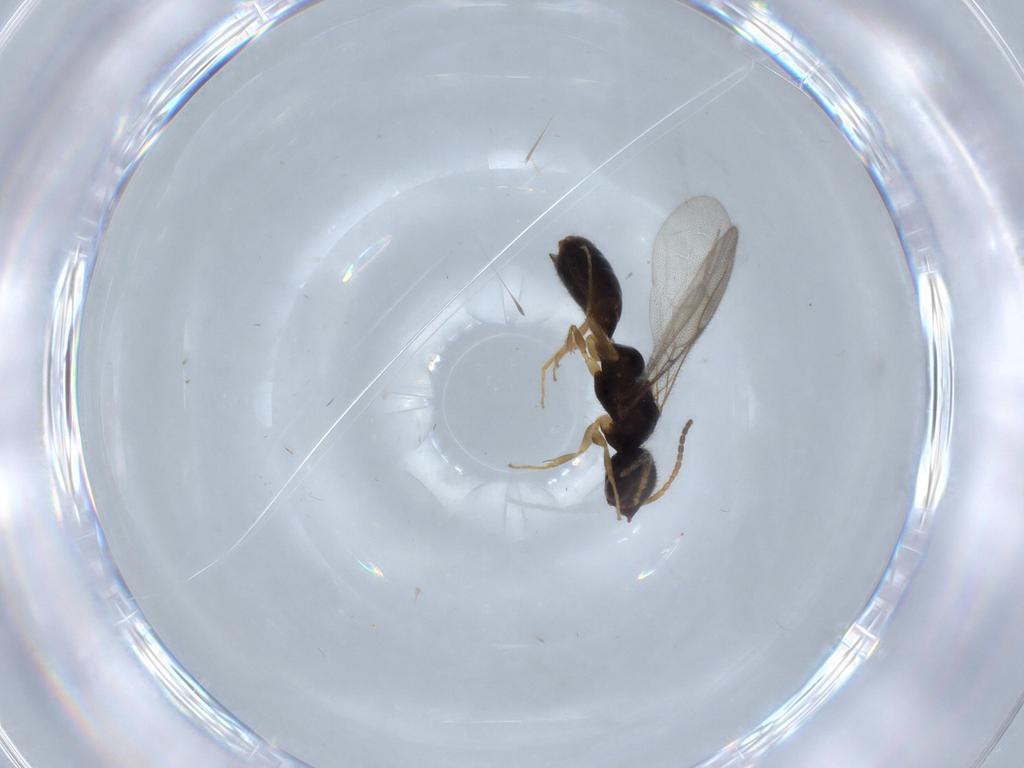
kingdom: Animalia
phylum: Arthropoda
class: Insecta
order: Hymenoptera
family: Bethylidae
